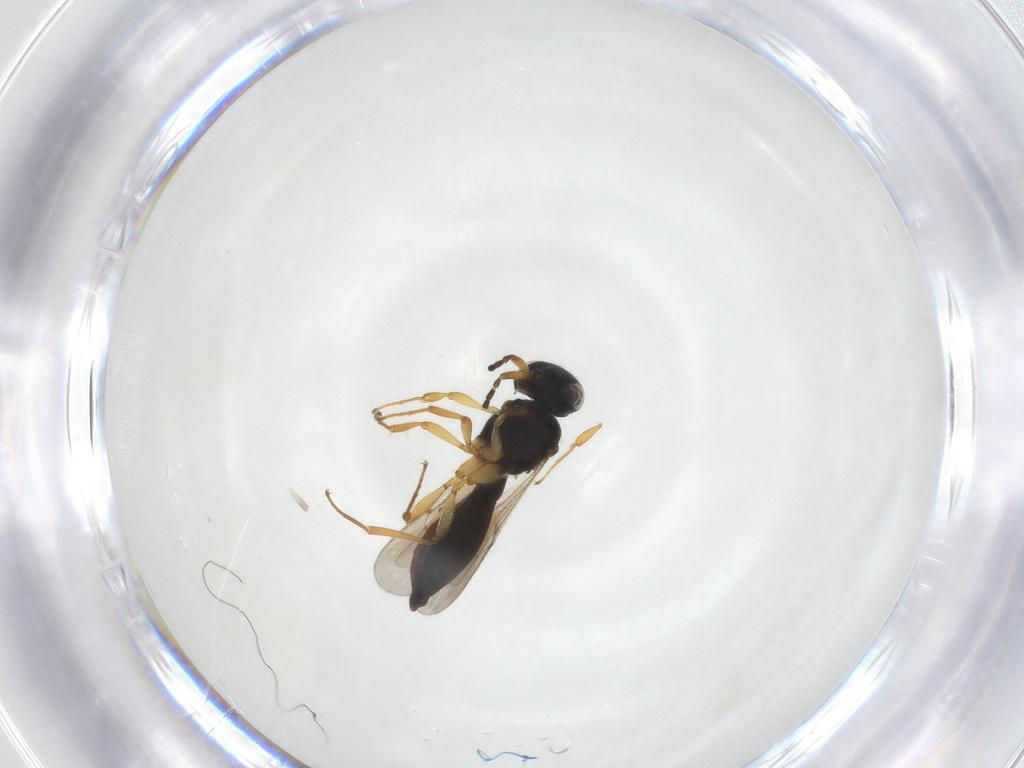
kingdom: Animalia
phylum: Arthropoda
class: Insecta
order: Hymenoptera
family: Scelionidae
